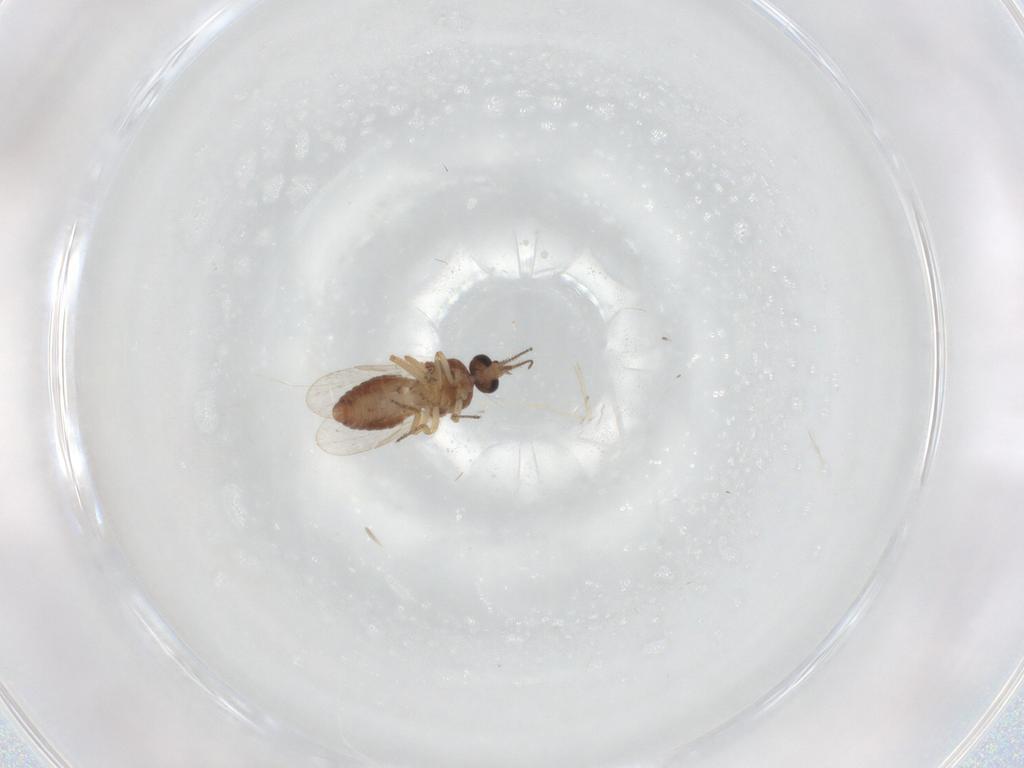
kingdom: Animalia
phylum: Arthropoda
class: Insecta
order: Diptera
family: Ceratopogonidae
